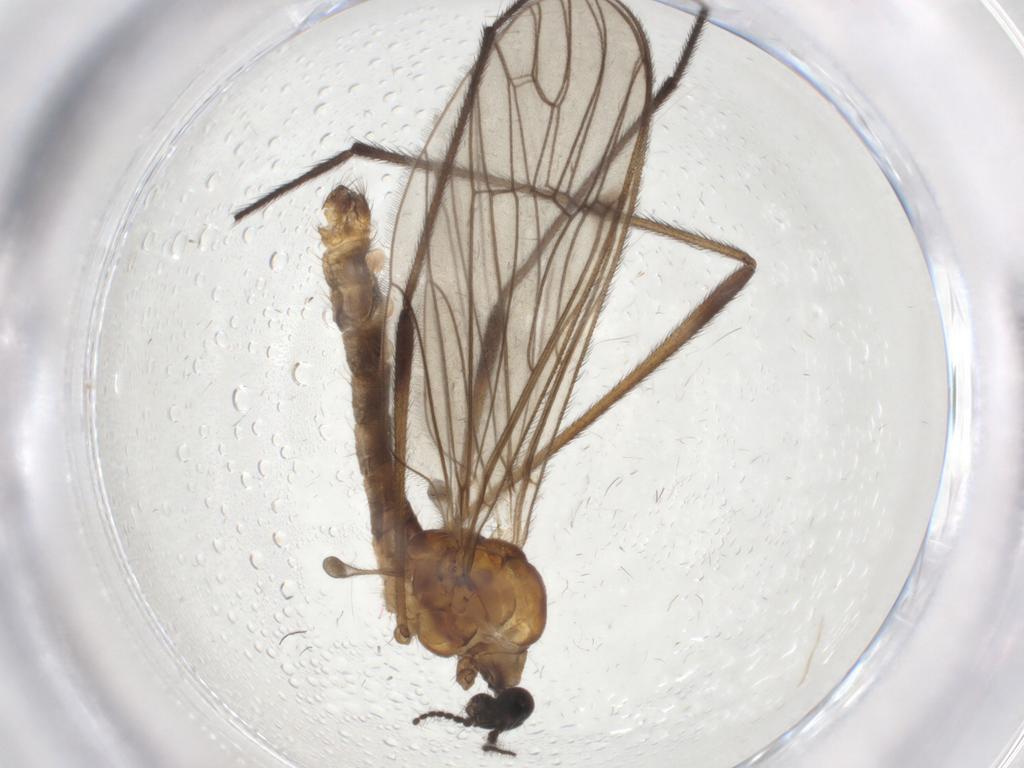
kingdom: Animalia
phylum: Arthropoda
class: Insecta
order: Diptera
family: Limoniidae
